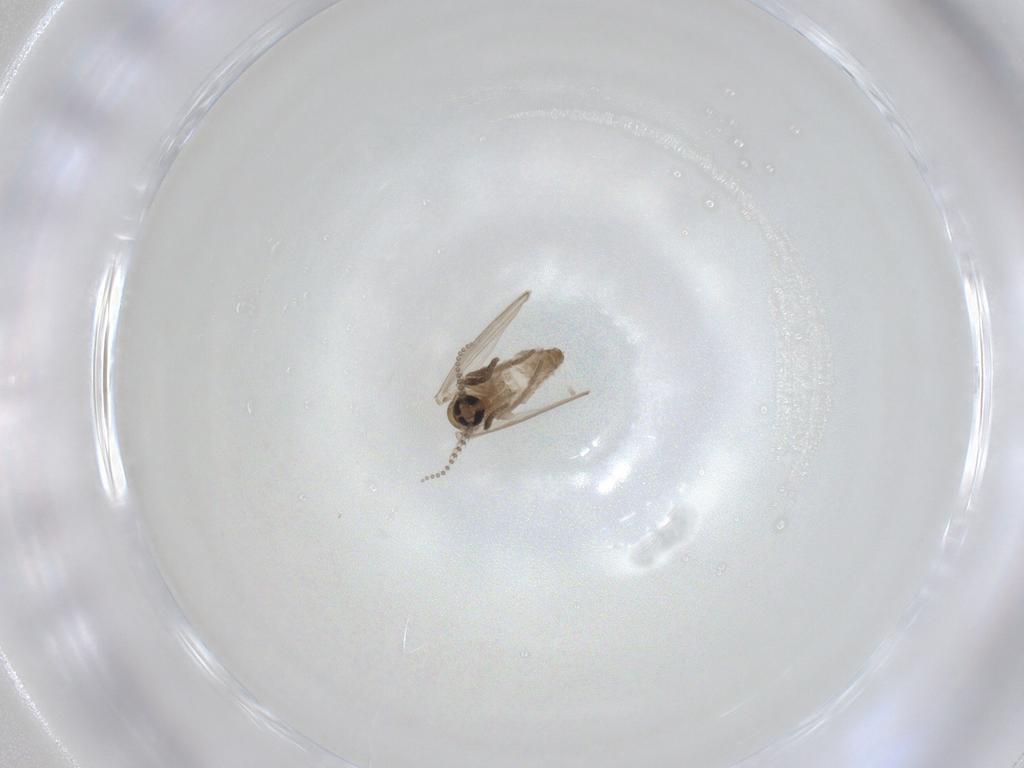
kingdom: Animalia
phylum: Arthropoda
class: Insecta
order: Diptera
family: Psychodidae
